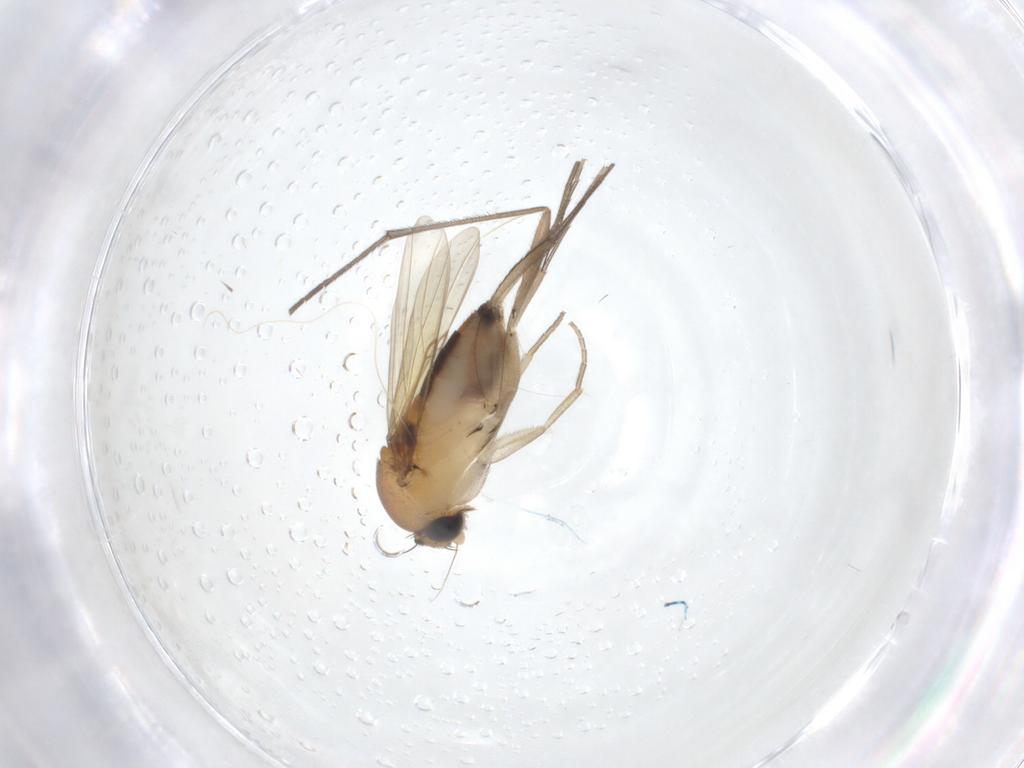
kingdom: Animalia
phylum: Arthropoda
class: Insecta
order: Diptera
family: Phoridae
